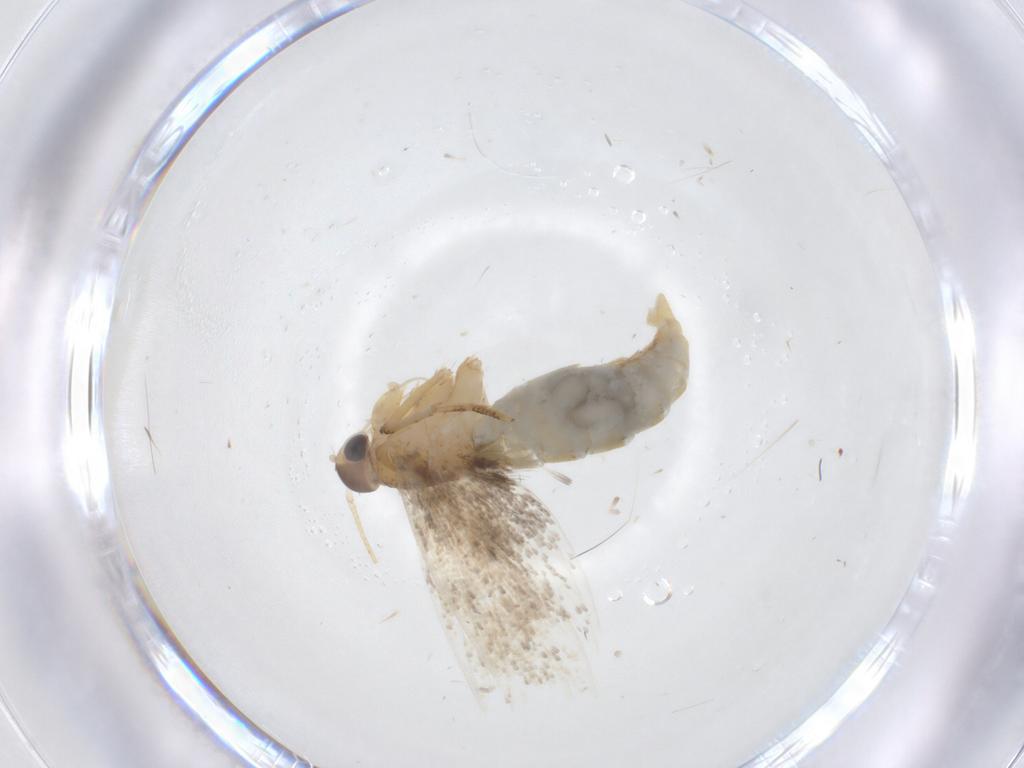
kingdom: Animalia
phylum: Arthropoda
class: Insecta
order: Lepidoptera
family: Oecophoridae
